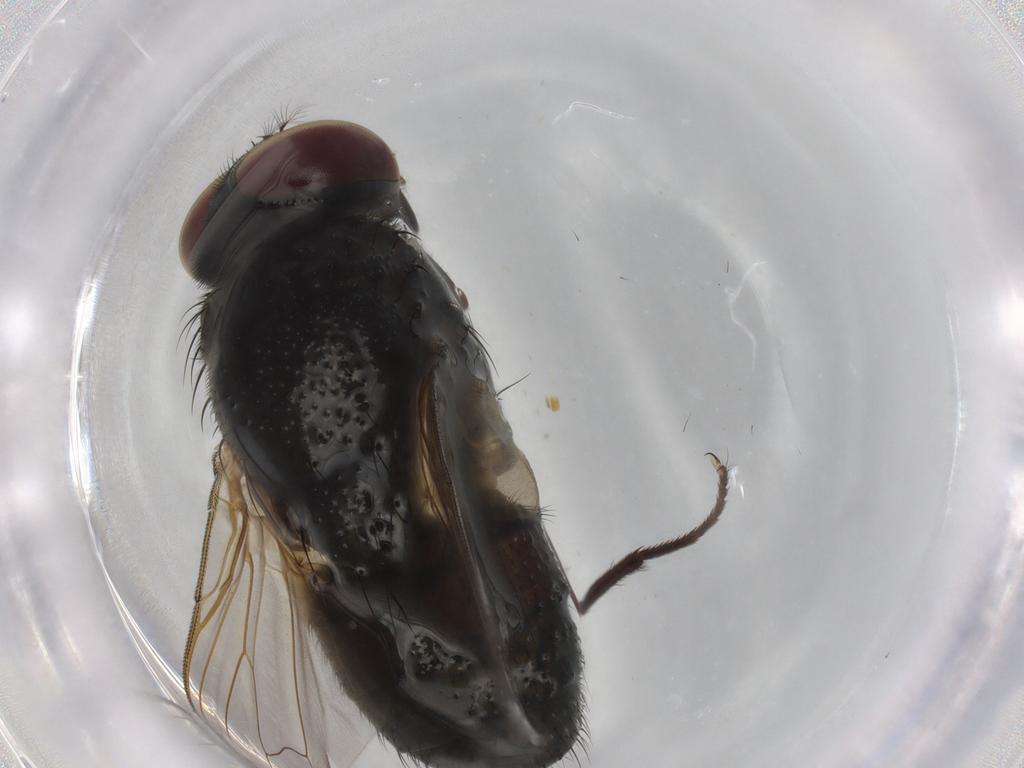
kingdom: Animalia
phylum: Arthropoda
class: Insecta
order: Diptera
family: Muscidae
